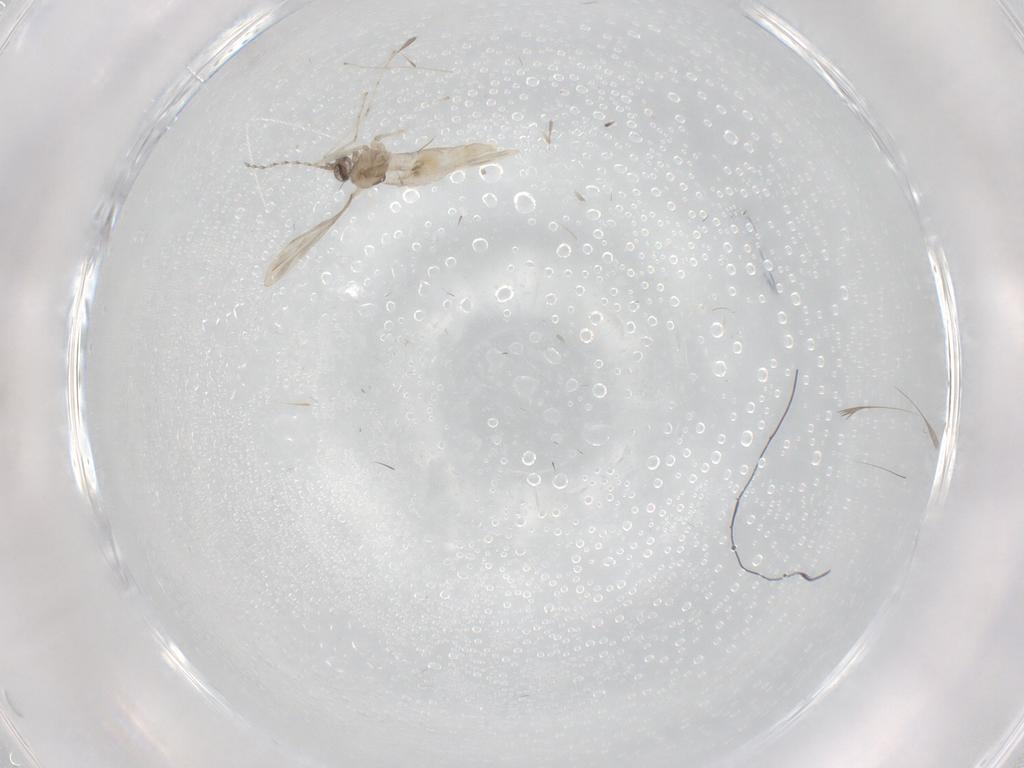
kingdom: Animalia
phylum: Arthropoda
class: Insecta
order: Diptera
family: Cecidomyiidae
